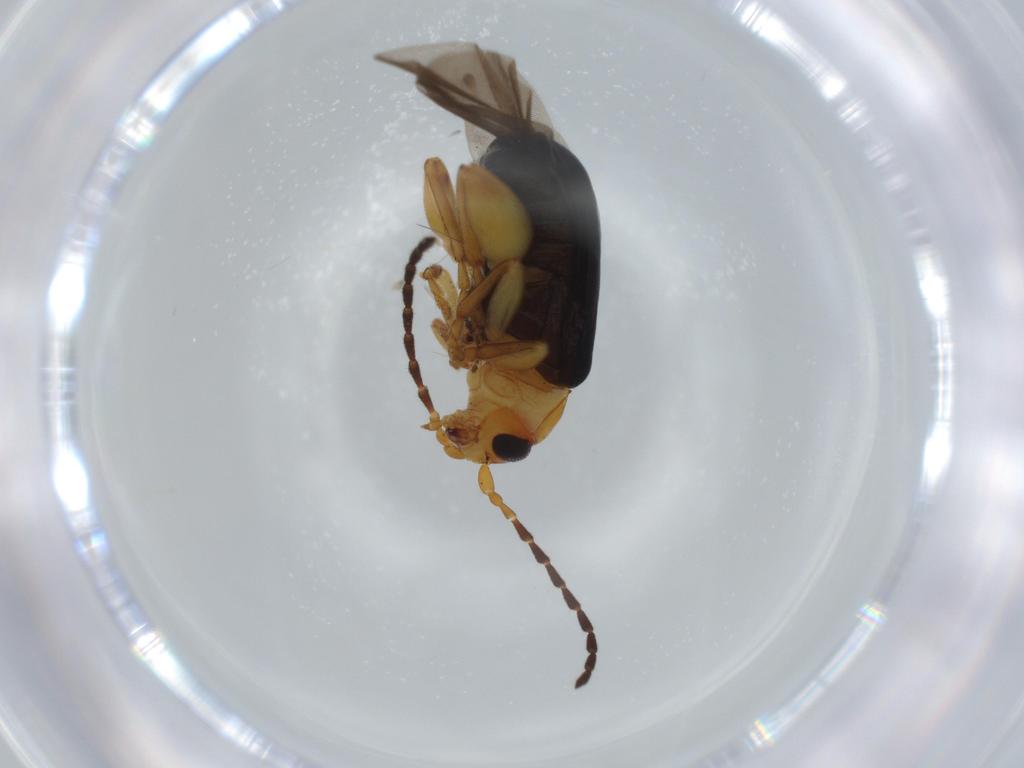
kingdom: Animalia
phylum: Arthropoda
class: Insecta
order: Coleoptera
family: Chrysomelidae
